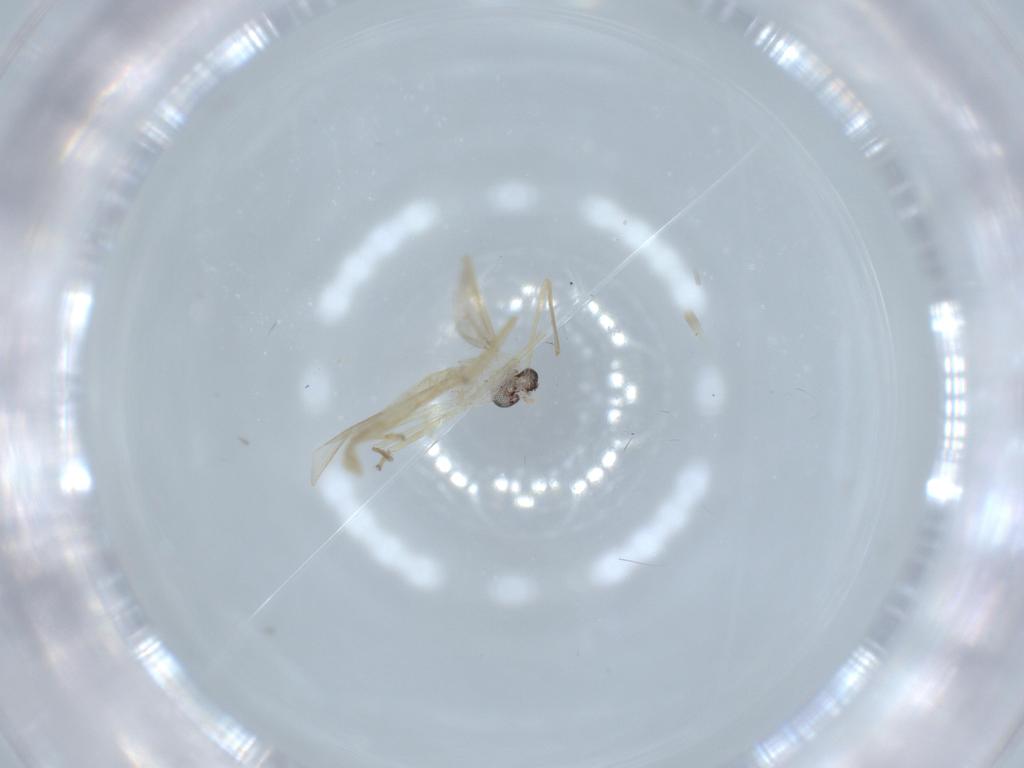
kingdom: Animalia
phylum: Arthropoda
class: Insecta
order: Diptera
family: Chironomidae
